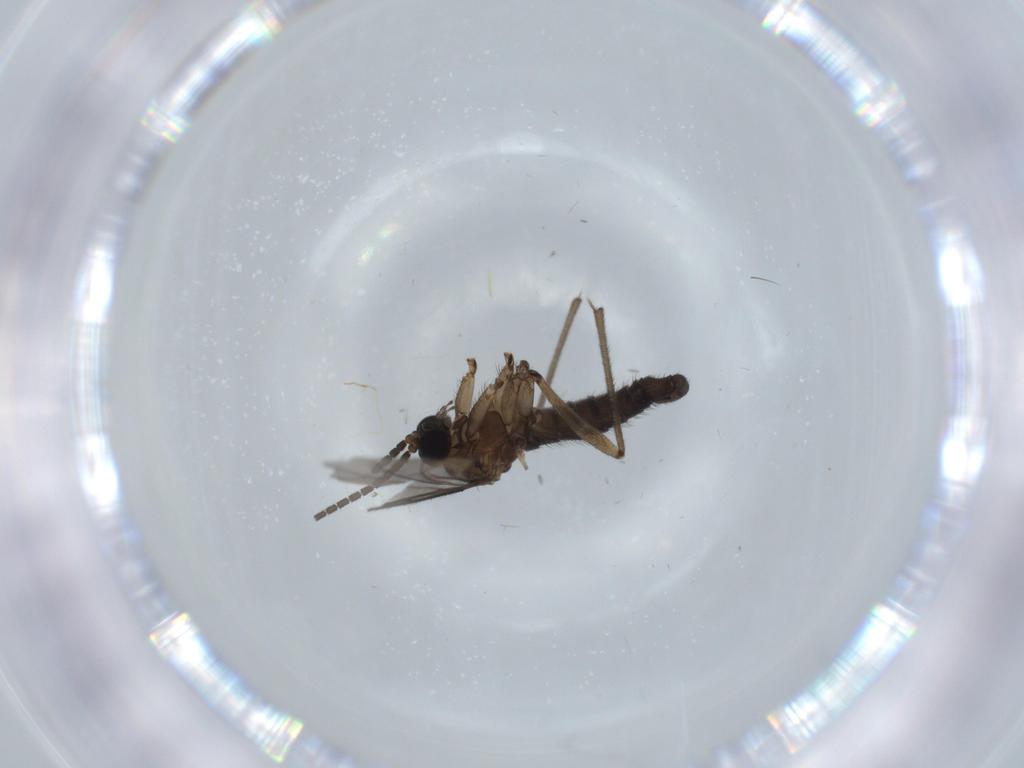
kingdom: Animalia
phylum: Arthropoda
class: Insecta
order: Diptera
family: Sciaridae
